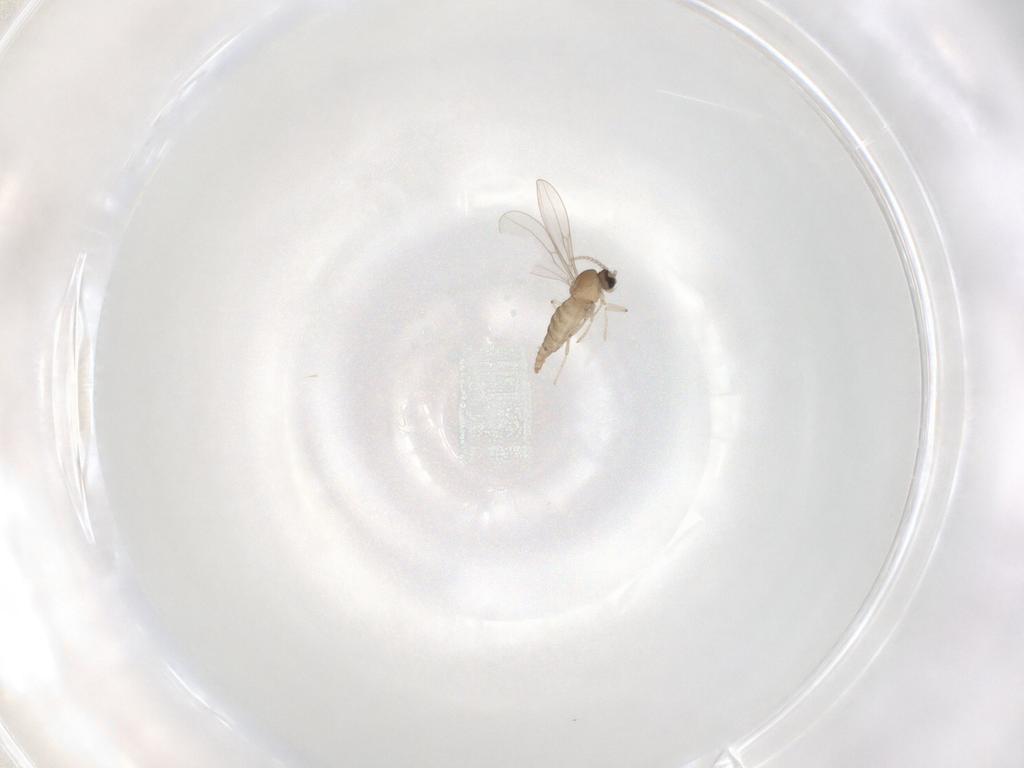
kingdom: Animalia
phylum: Arthropoda
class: Insecta
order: Diptera
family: Cecidomyiidae
